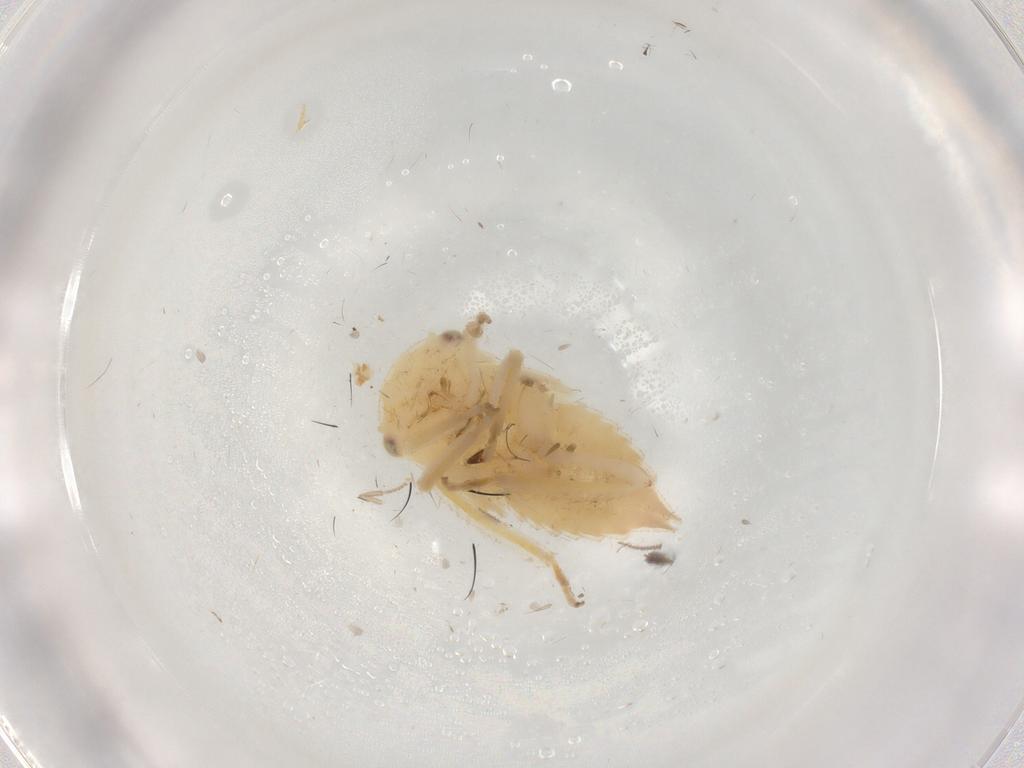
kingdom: Animalia
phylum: Arthropoda
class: Insecta
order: Hemiptera
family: Cicadellidae
